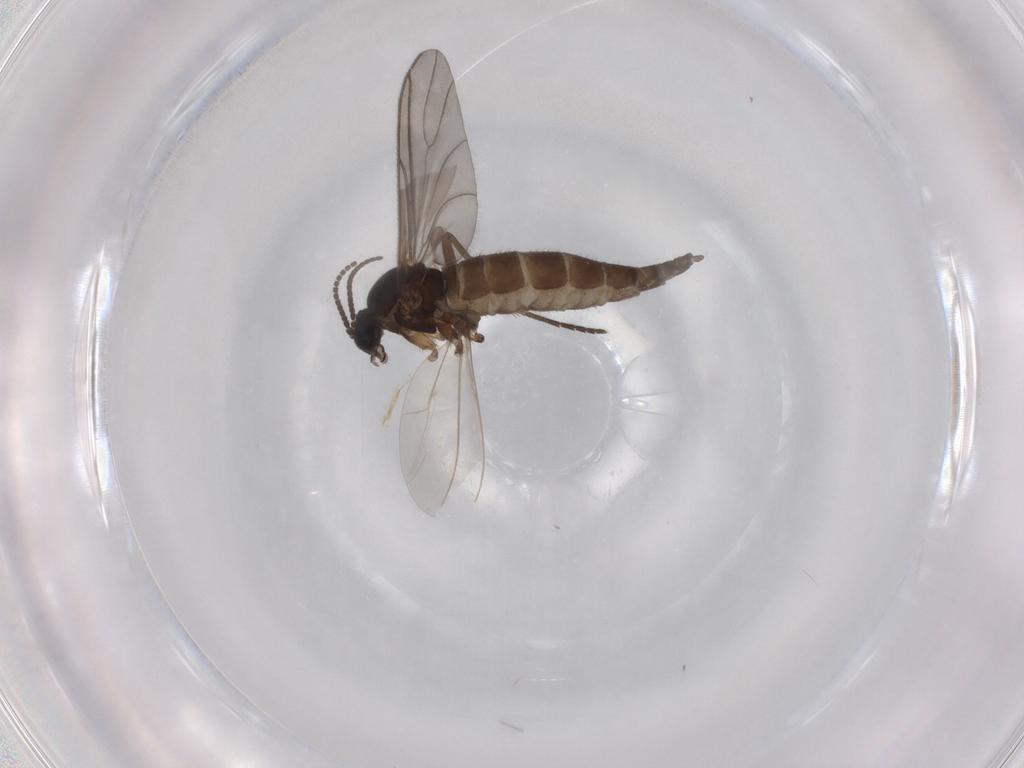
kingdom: Animalia
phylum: Arthropoda
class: Insecta
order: Diptera
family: Sciaridae
